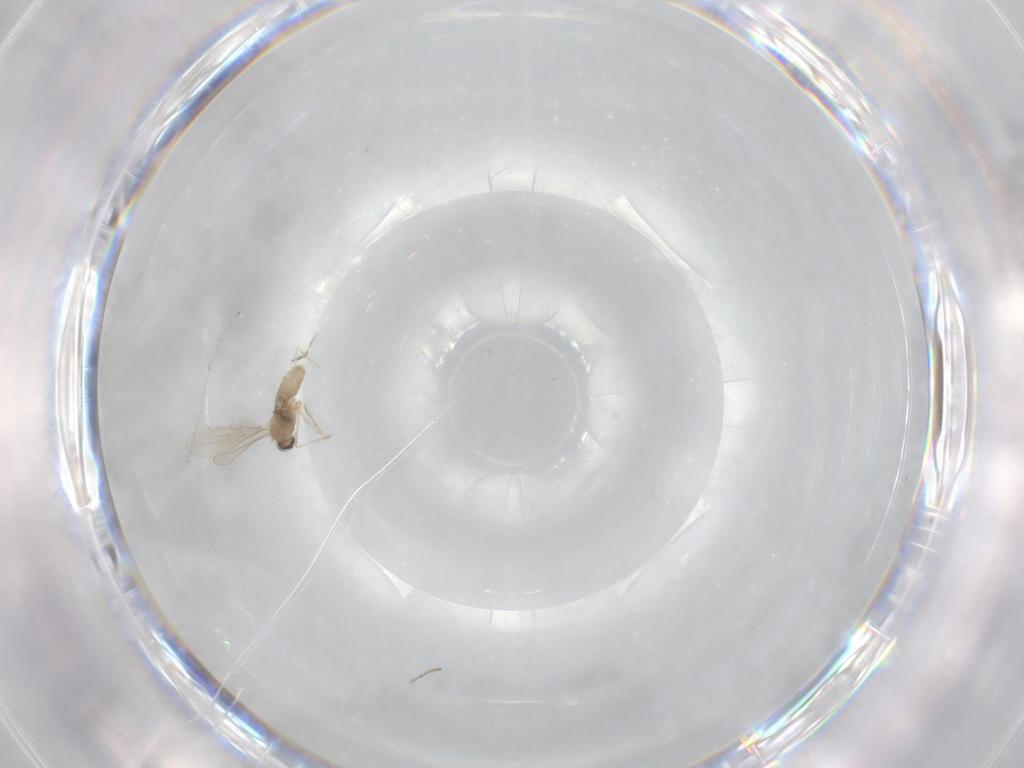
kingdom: Animalia
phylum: Arthropoda
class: Insecta
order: Diptera
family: Cecidomyiidae
